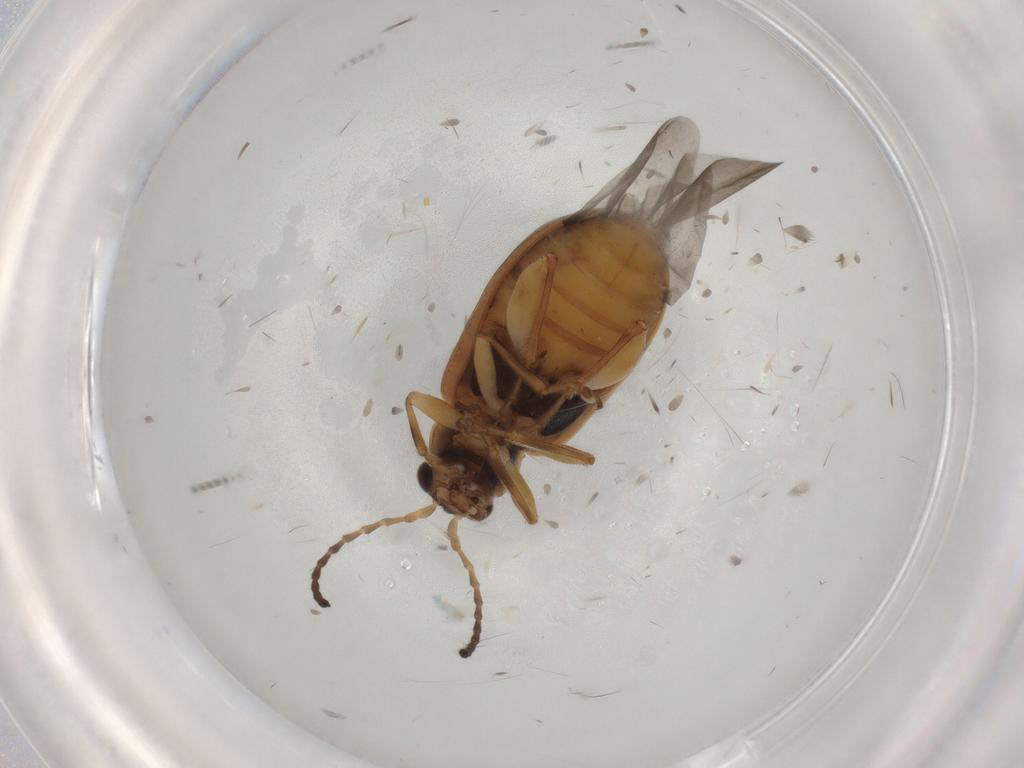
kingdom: Animalia
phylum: Arthropoda
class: Insecta
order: Coleoptera
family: Chrysomelidae
